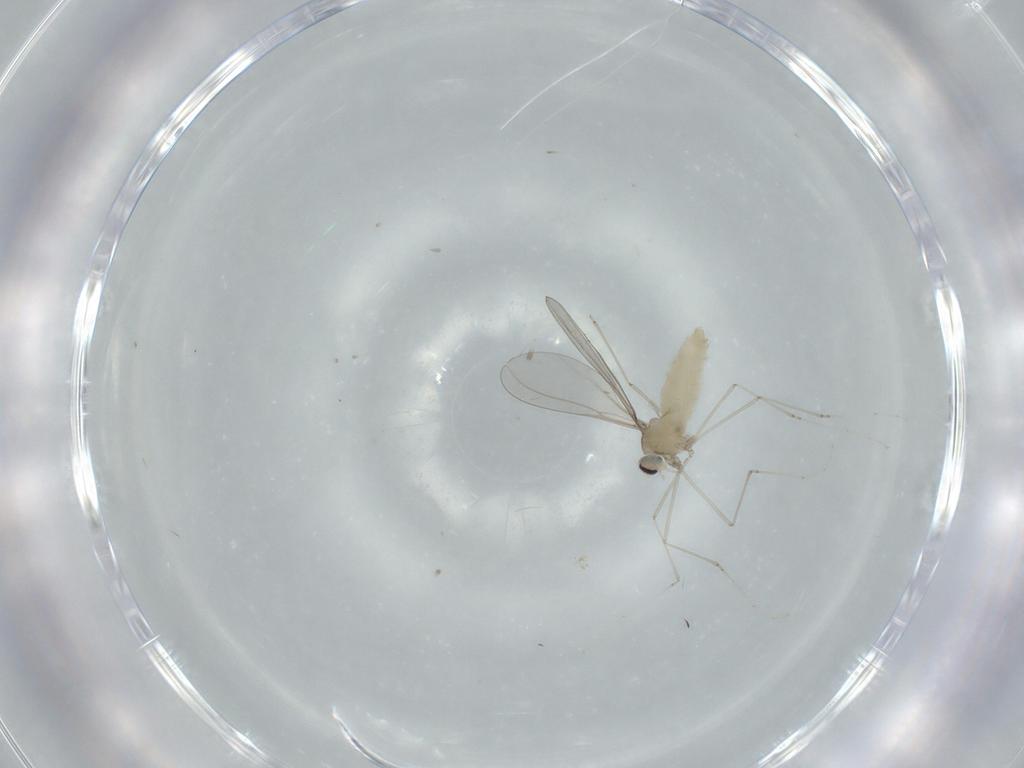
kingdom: Animalia
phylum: Arthropoda
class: Insecta
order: Diptera
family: Cecidomyiidae
